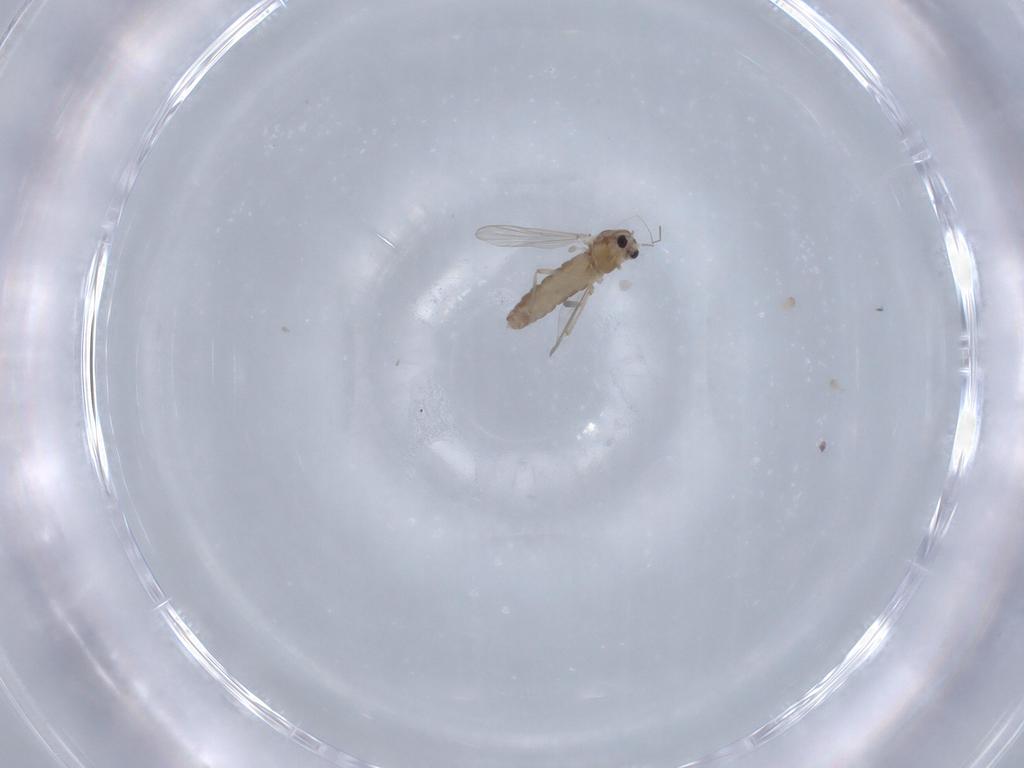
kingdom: Animalia
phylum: Arthropoda
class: Insecta
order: Diptera
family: Chironomidae
